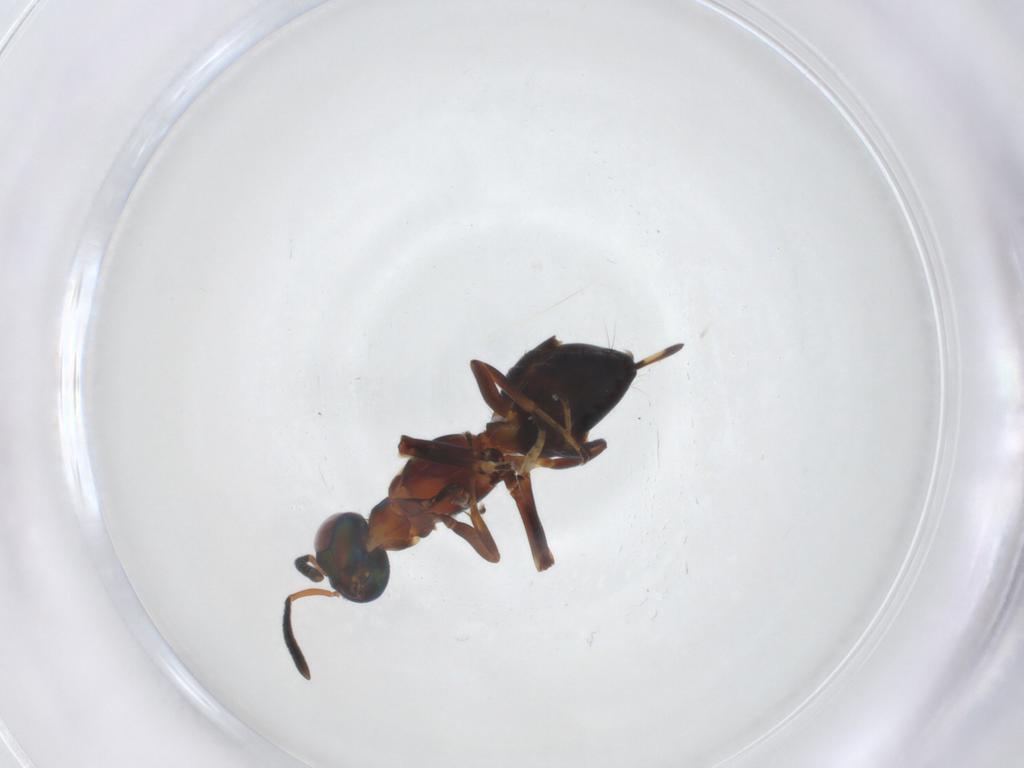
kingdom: Animalia
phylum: Arthropoda
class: Insecta
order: Hymenoptera
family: Eupelmidae
